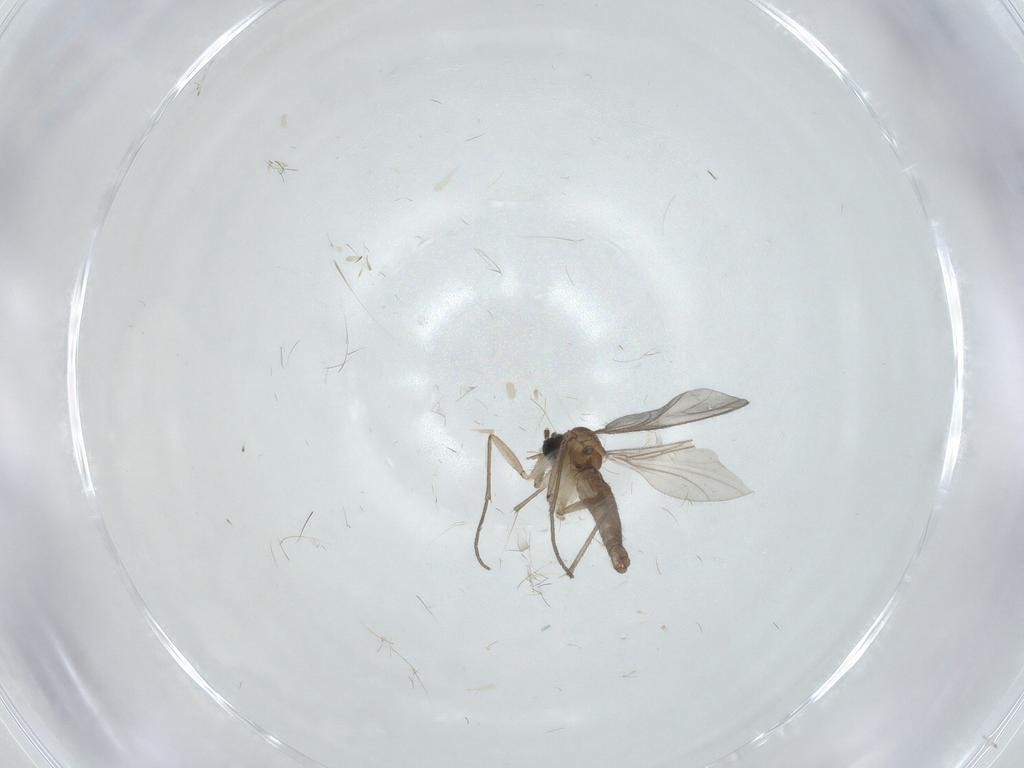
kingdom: Animalia
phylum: Arthropoda
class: Insecta
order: Diptera
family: Sciaridae
